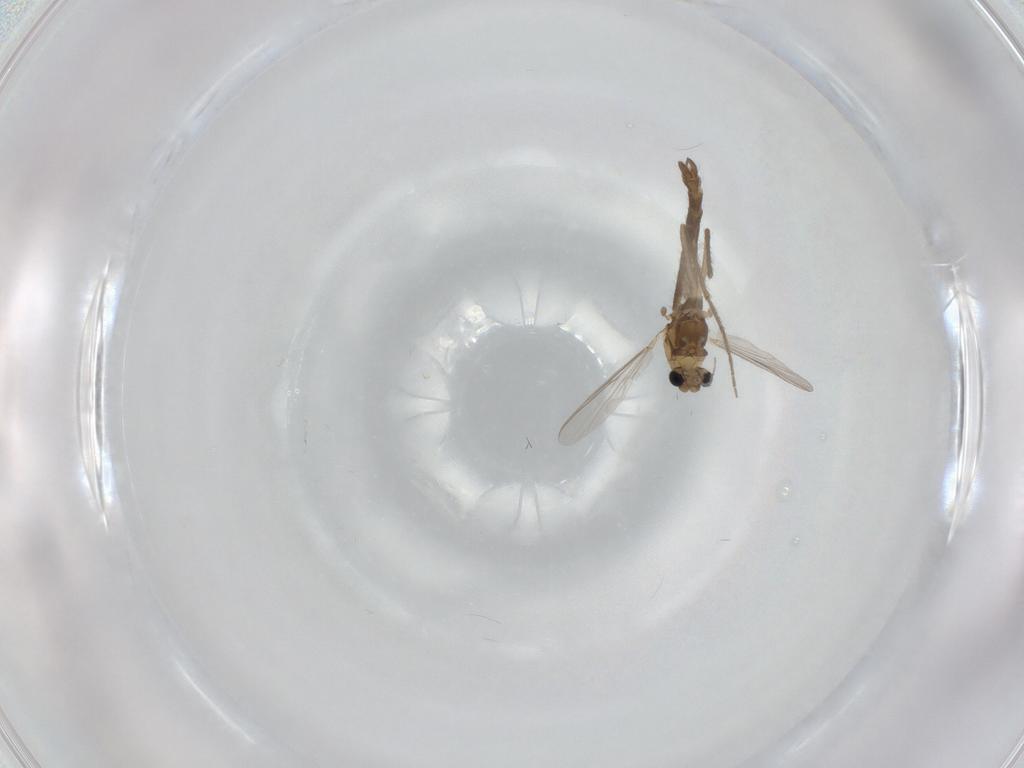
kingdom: Animalia
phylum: Arthropoda
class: Insecta
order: Diptera
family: Chironomidae
